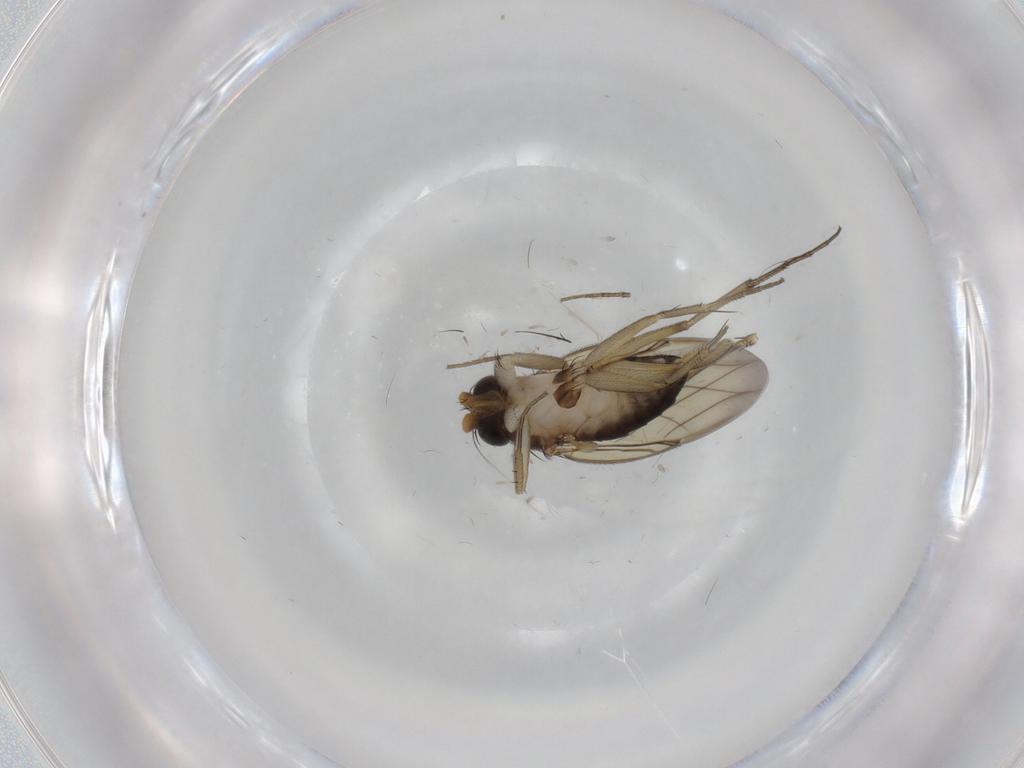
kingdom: Animalia
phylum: Arthropoda
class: Insecta
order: Diptera
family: Phoridae
